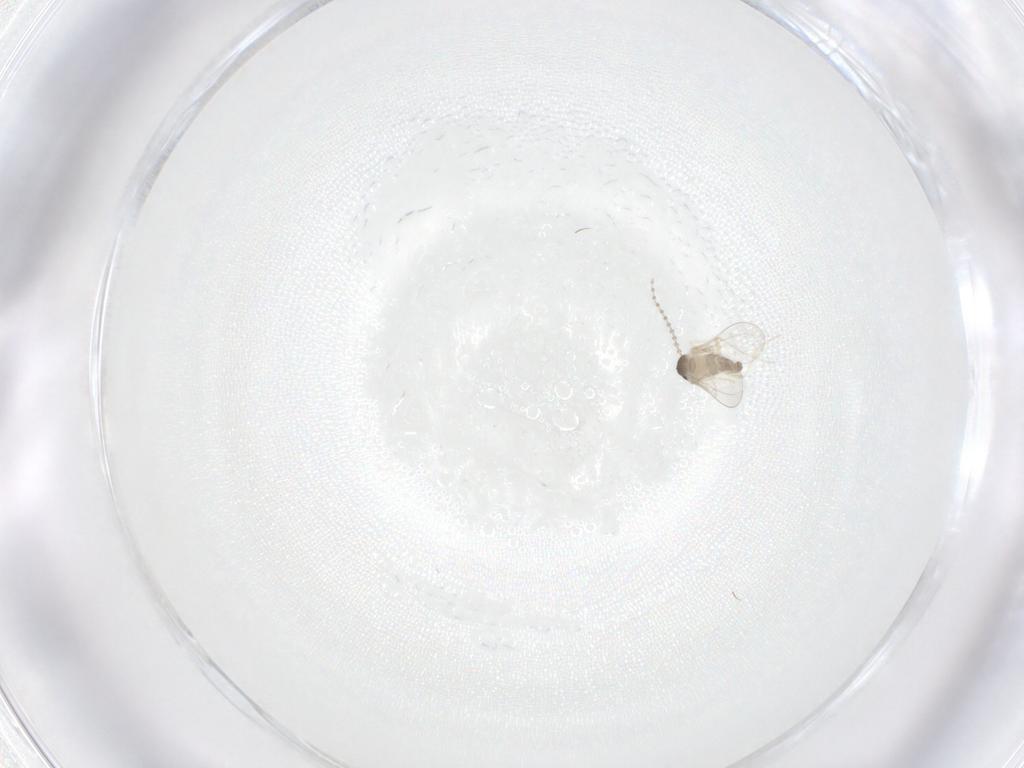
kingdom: Animalia
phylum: Arthropoda
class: Insecta
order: Diptera
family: Cecidomyiidae
